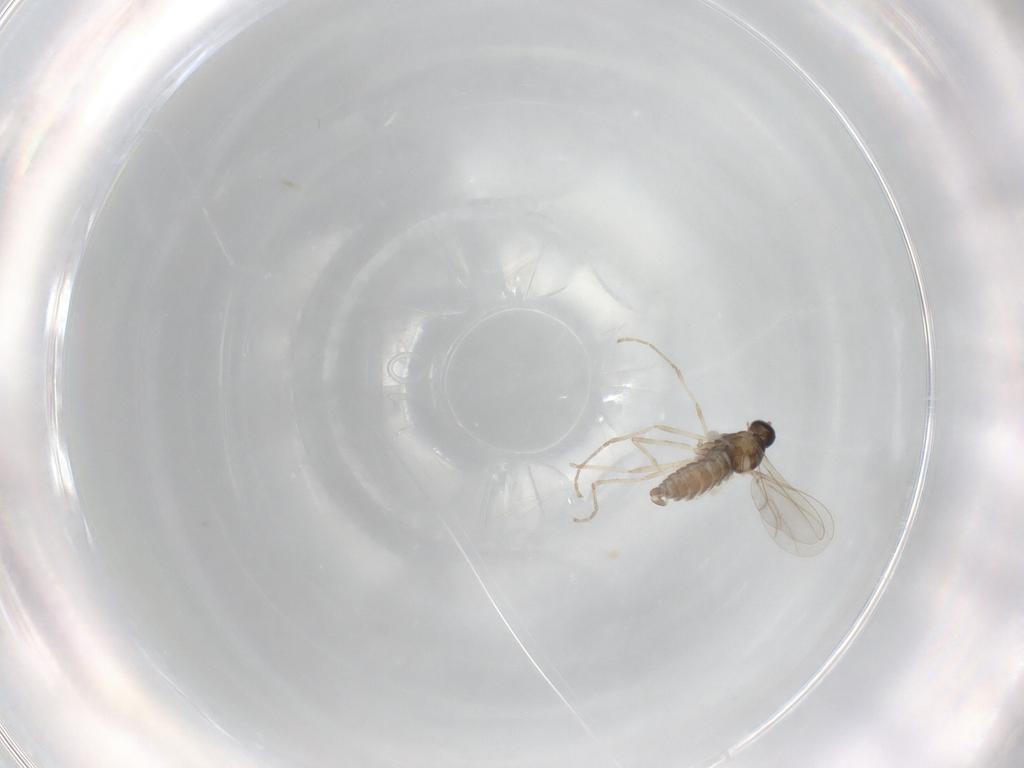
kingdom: Animalia
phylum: Arthropoda
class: Insecta
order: Diptera
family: Cecidomyiidae
